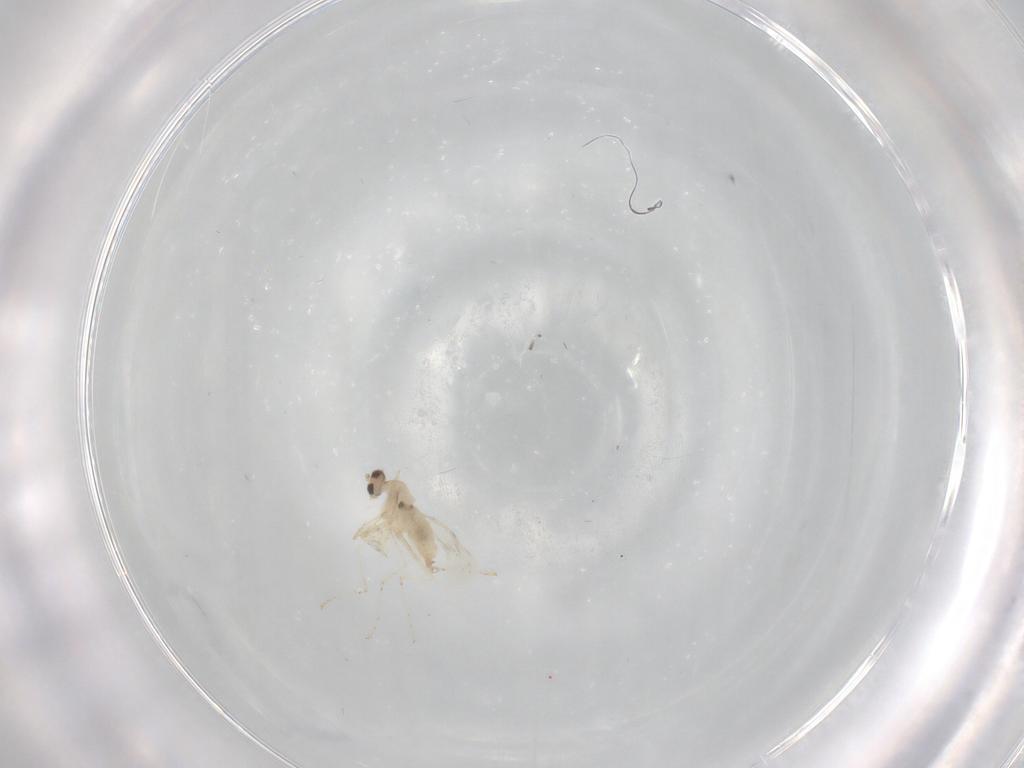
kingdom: Animalia
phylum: Arthropoda
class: Insecta
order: Diptera
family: Cecidomyiidae
